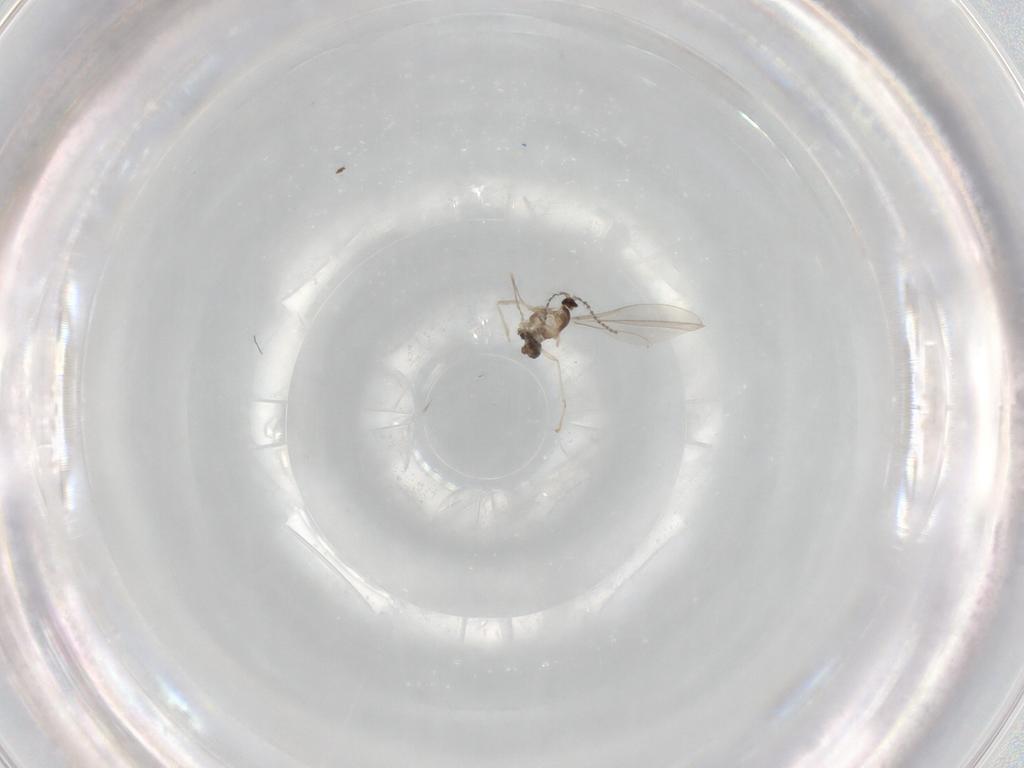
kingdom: Animalia
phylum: Arthropoda
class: Insecta
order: Diptera
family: Cecidomyiidae
